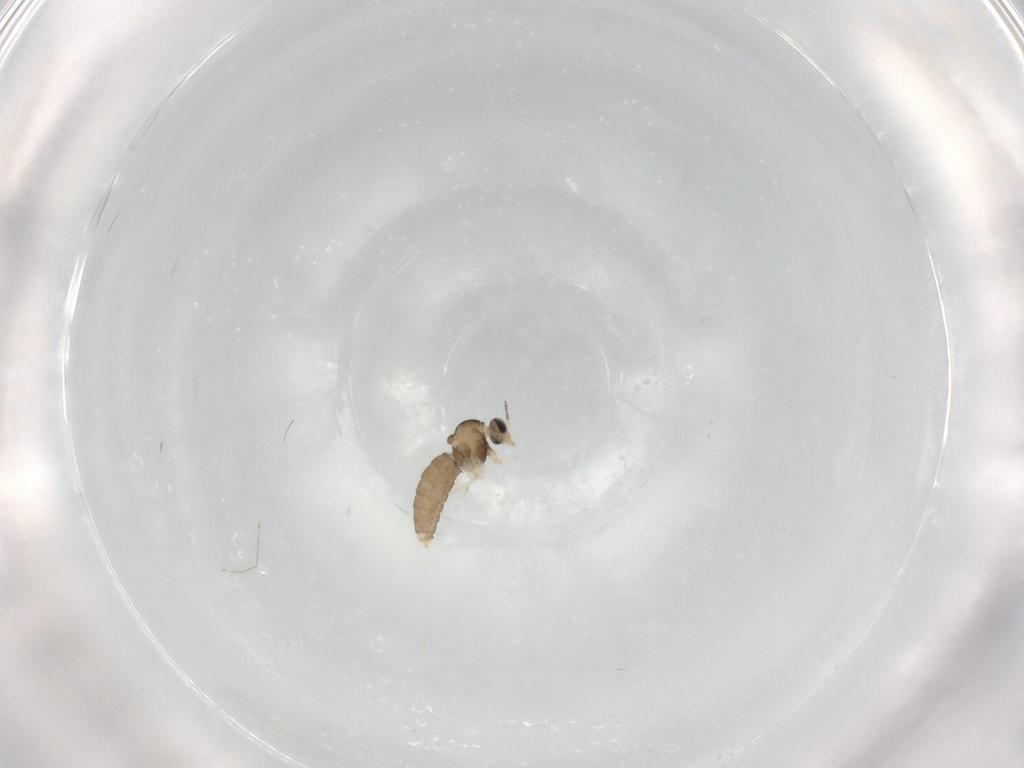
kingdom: Animalia
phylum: Arthropoda
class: Insecta
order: Diptera
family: Cecidomyiidae
